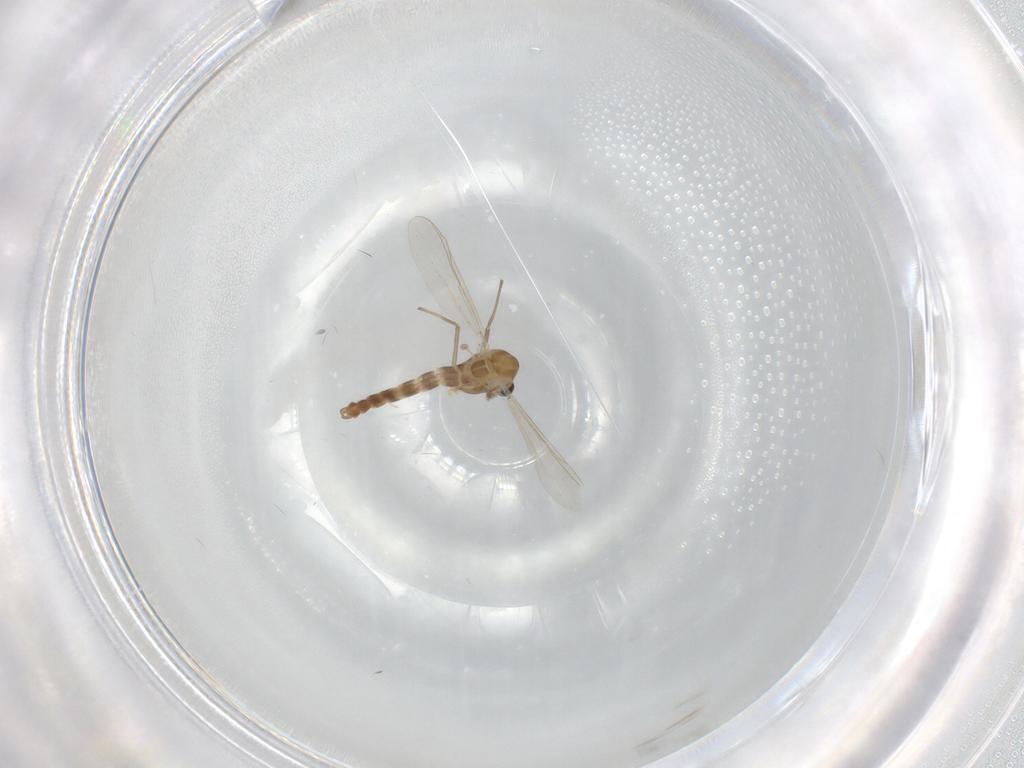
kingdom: Animalia
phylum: Arthropoda
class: Insecta
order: Diptera
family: Chironomidae
